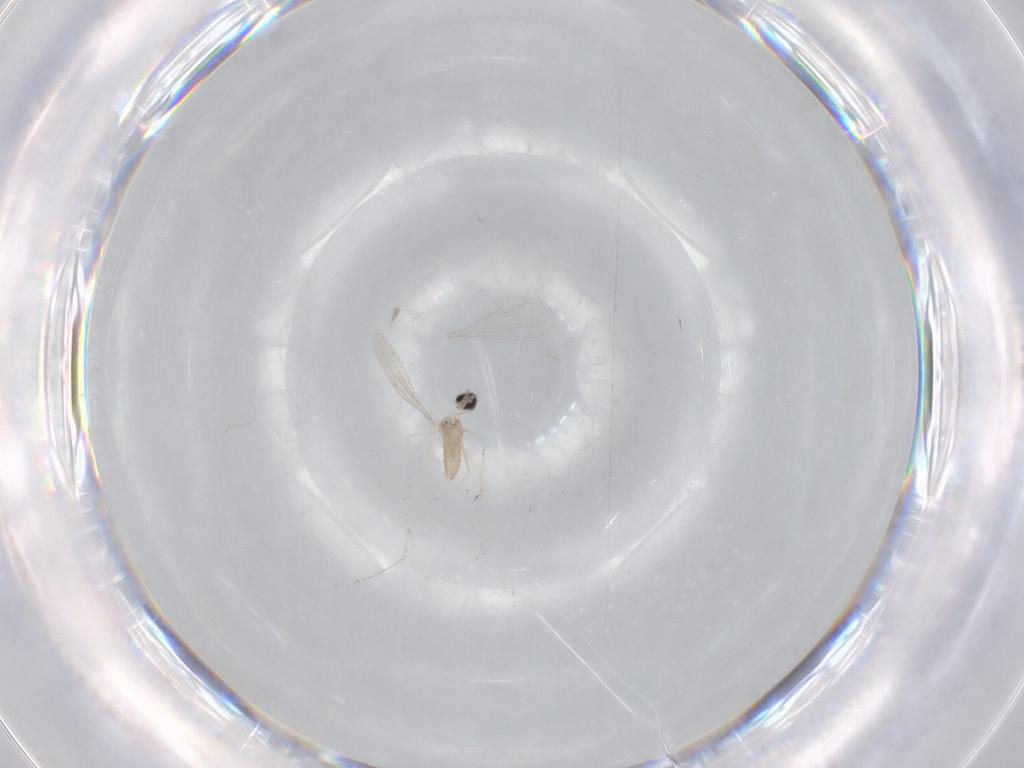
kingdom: Animalia
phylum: Arthropoda
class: Insecta
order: Diptera
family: Cecidomyiidae
